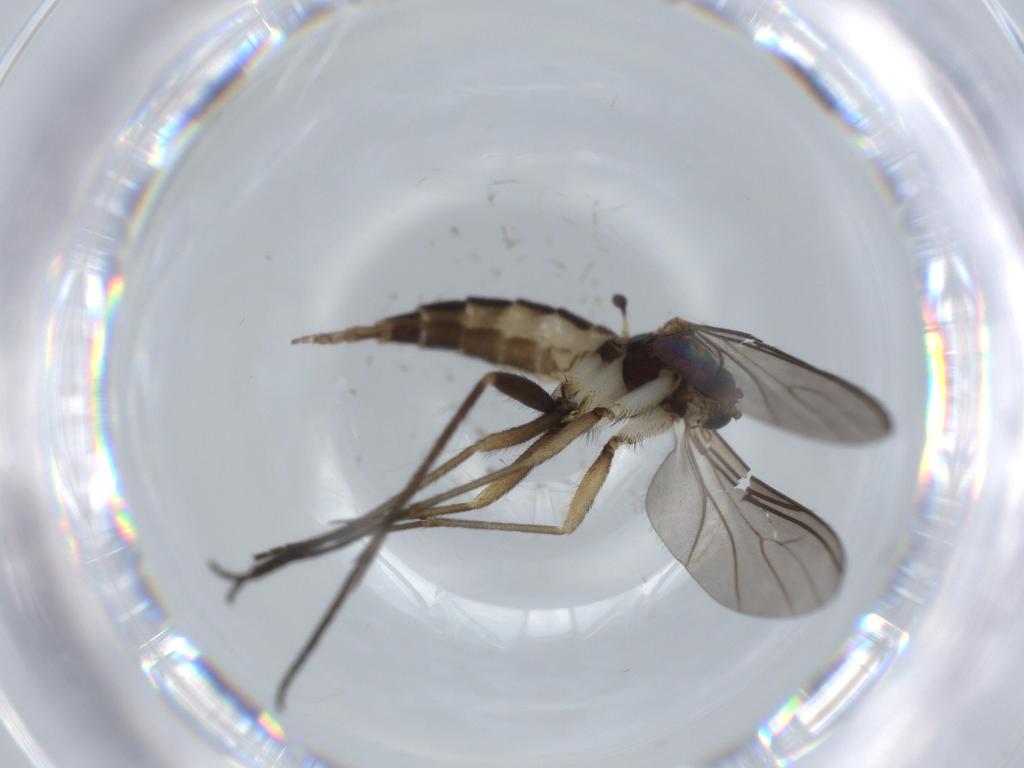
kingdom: Animalia
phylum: Arthropoda
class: Insecta
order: Diptera
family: Sciaridae
